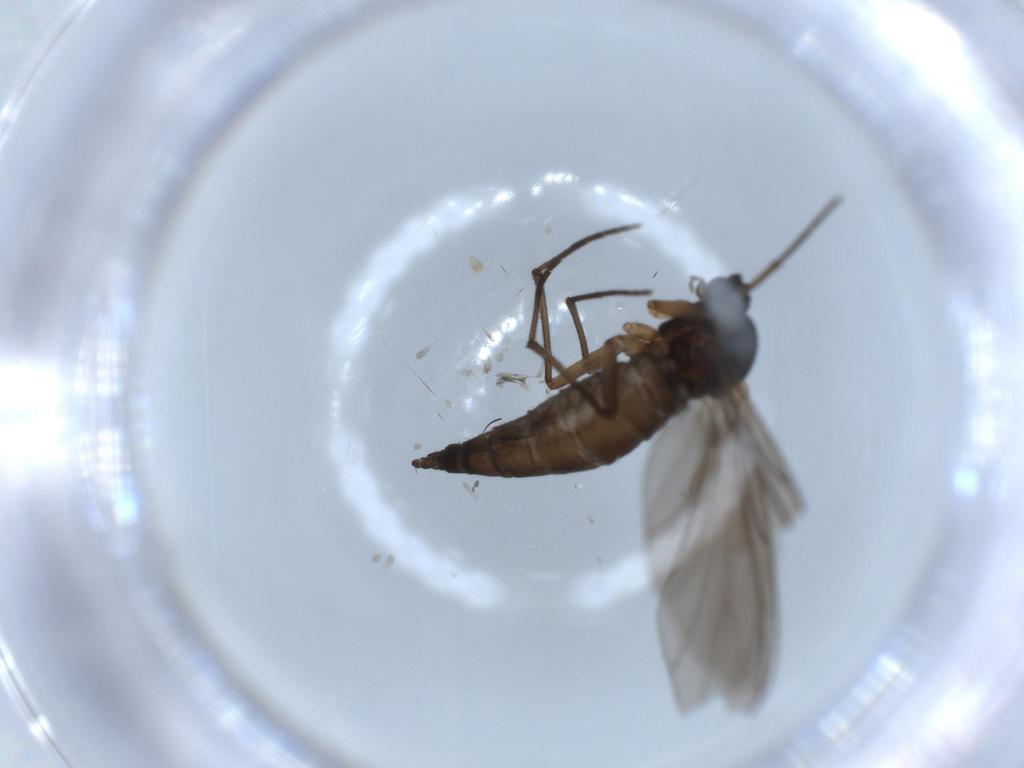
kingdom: Animalia
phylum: Arthropoda
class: Insecta
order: Diptera
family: Sciaridae
